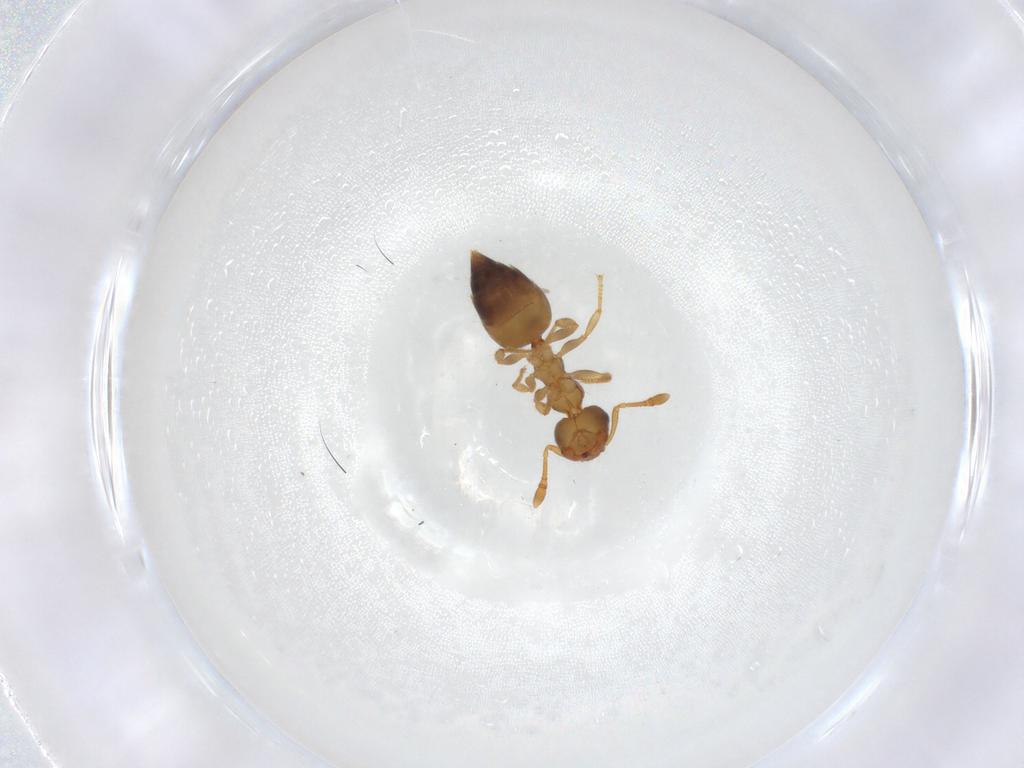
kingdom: Animalia
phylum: Arthropoda
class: Insecta
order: Hymenoptera
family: Formicidae
